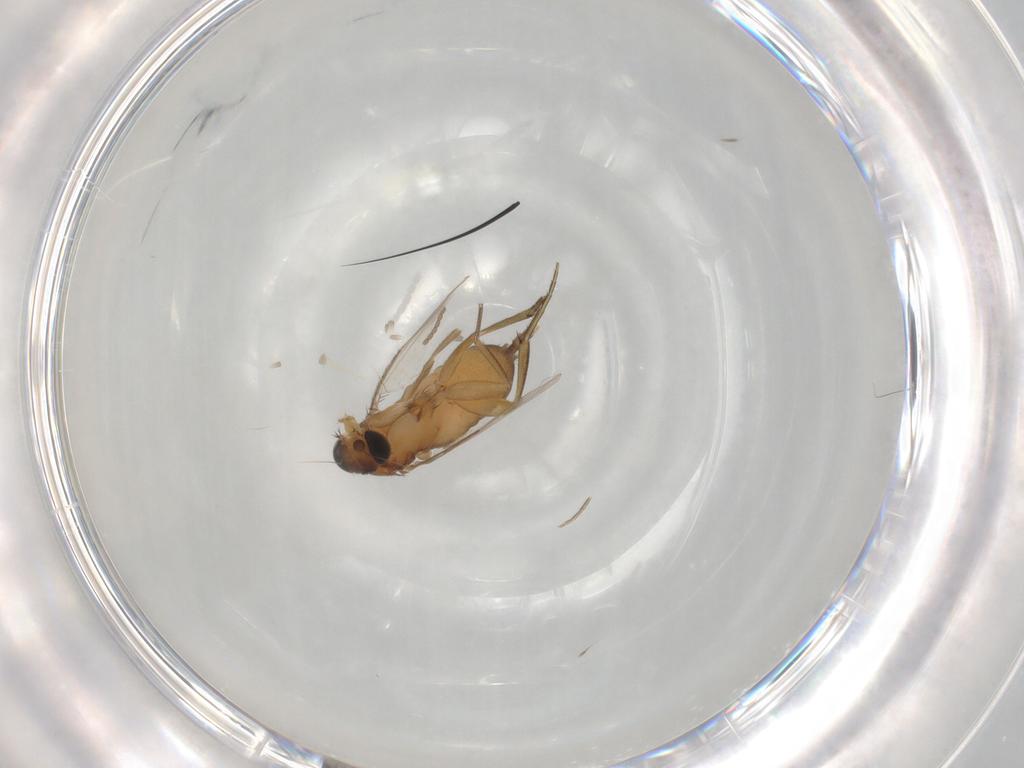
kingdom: Animalia
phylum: Arthropoda
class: Insecta
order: Diptera
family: Phoridae
